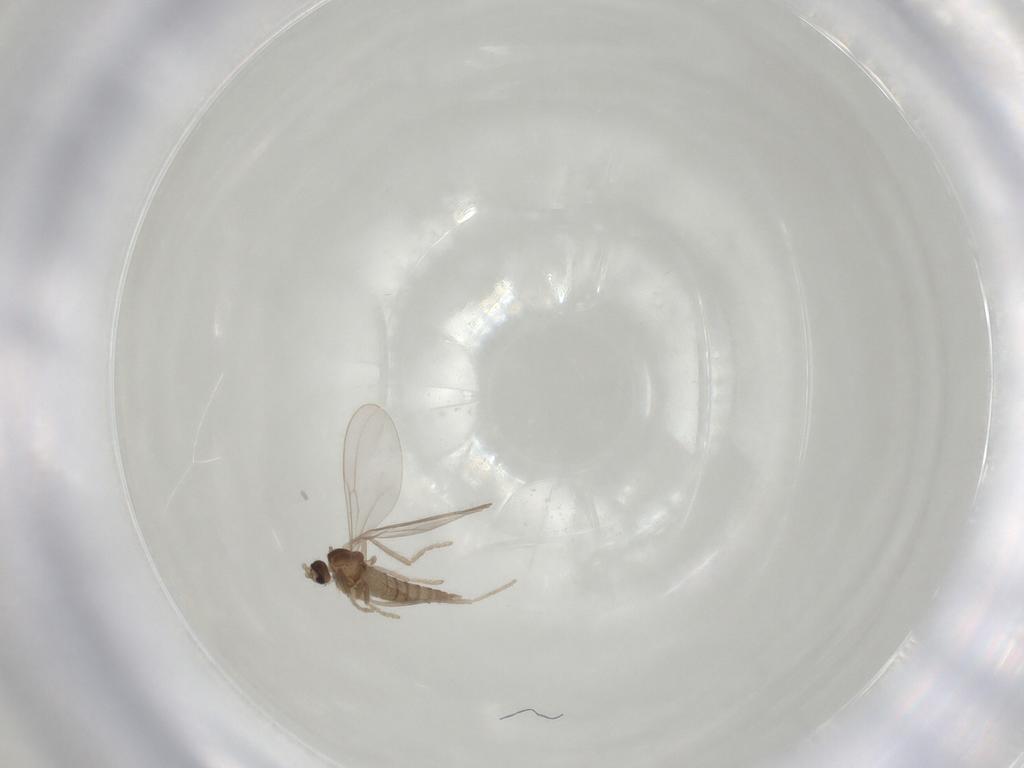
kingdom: Animalia
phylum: Arthropoda
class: Insecta
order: Diptera
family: Cecidomyiidae
